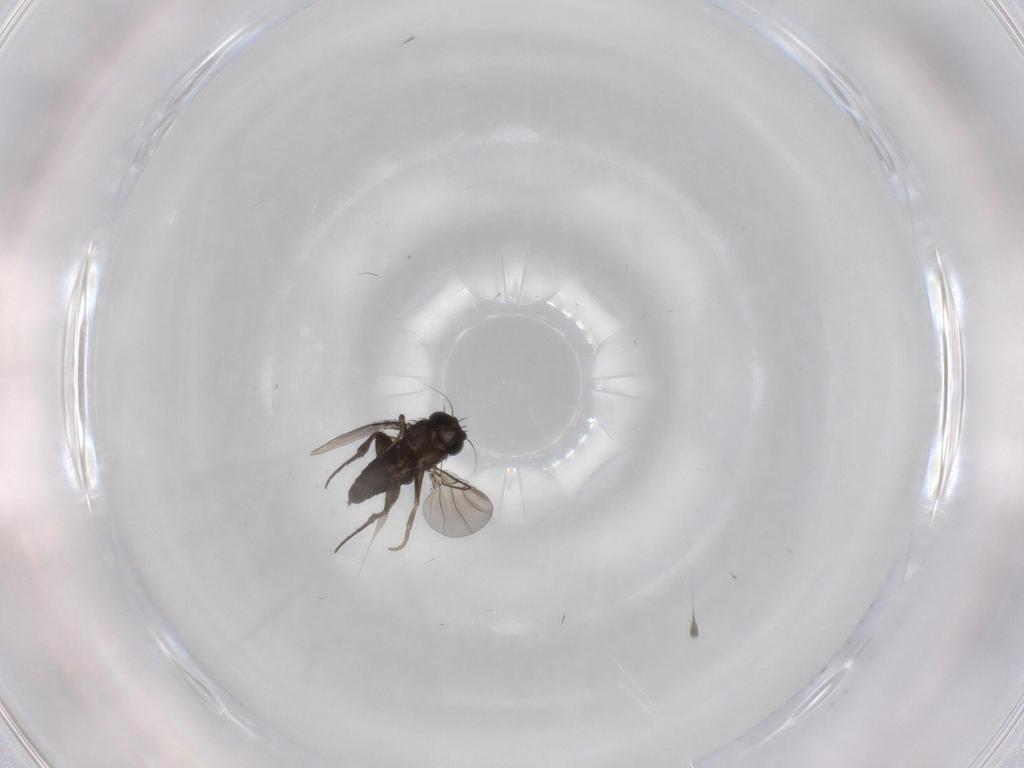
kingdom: Animalia
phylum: Arthropoda
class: Insecta
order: Diptera
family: Phoridae
